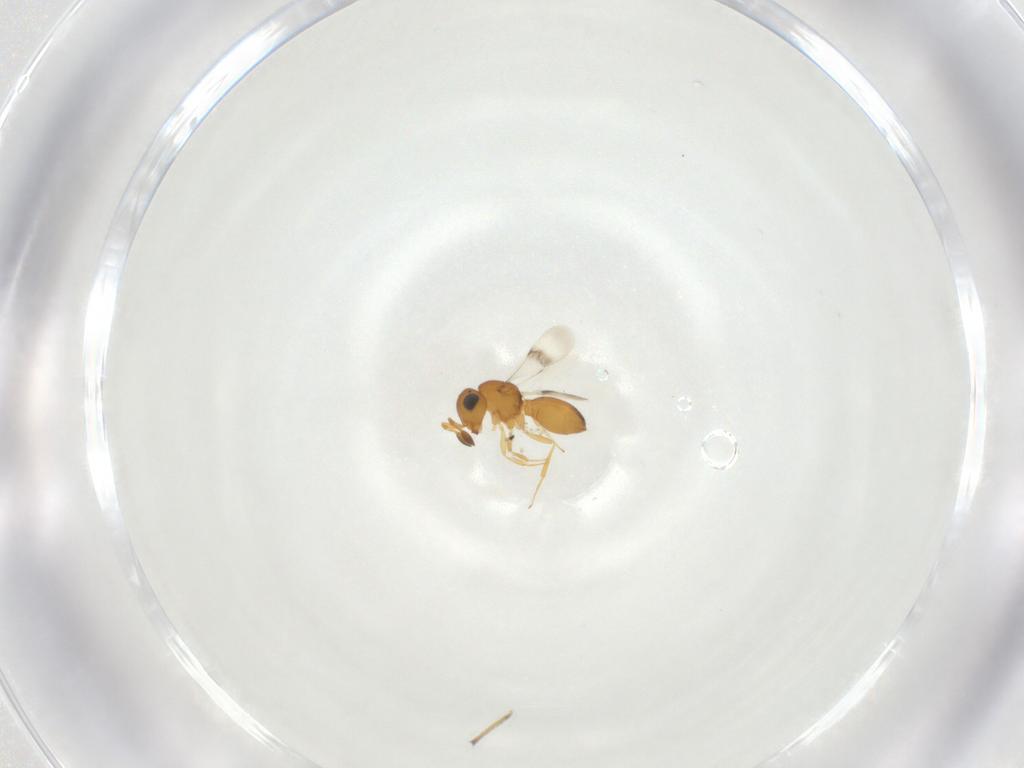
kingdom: Animalia
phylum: Arthropoda
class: Insecta
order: Hymenoptera
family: Scelionidae
